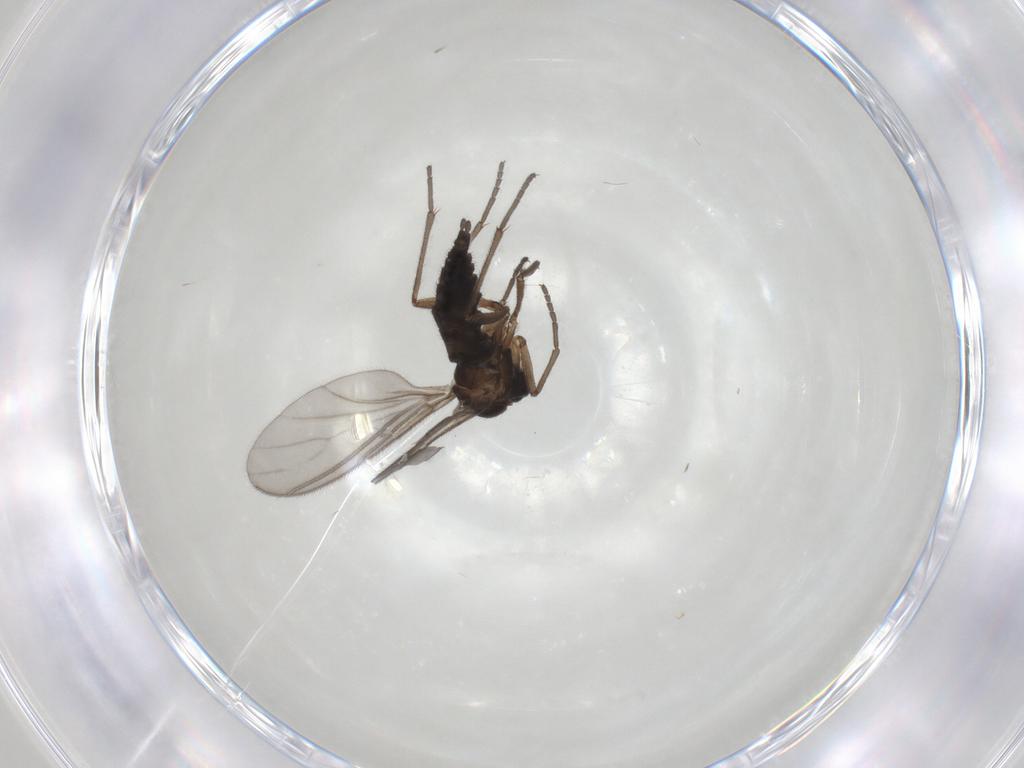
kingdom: Animalia
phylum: Arthropoda
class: Insecta
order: Diptera
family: Sciaridae
